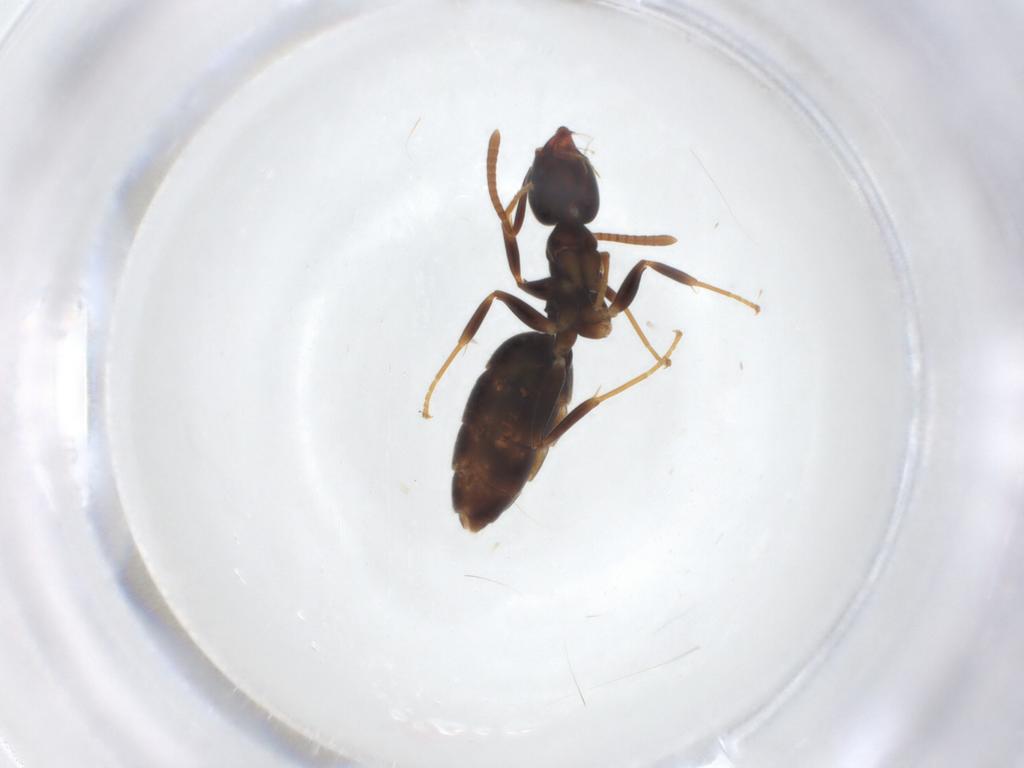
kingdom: Animalia
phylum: Arthropoda
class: Insecta
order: Hymenoptera
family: Formicidae
